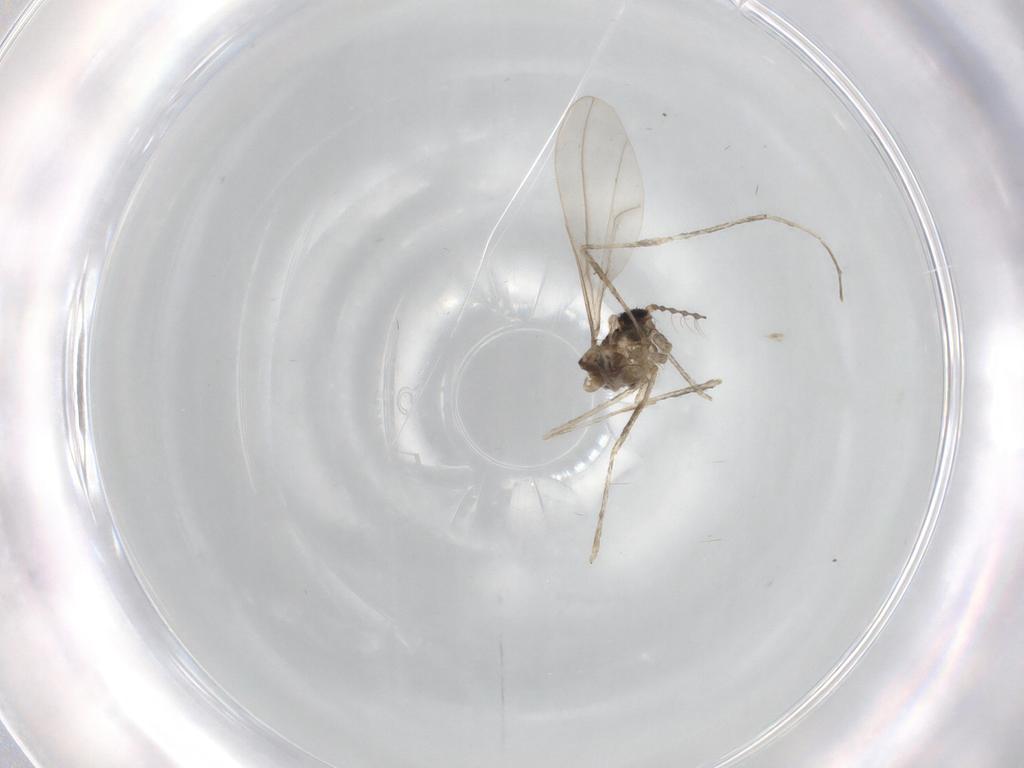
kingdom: Animalia
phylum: Arthropoda
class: Insecta
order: Diptera
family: Cecidomyiidae
